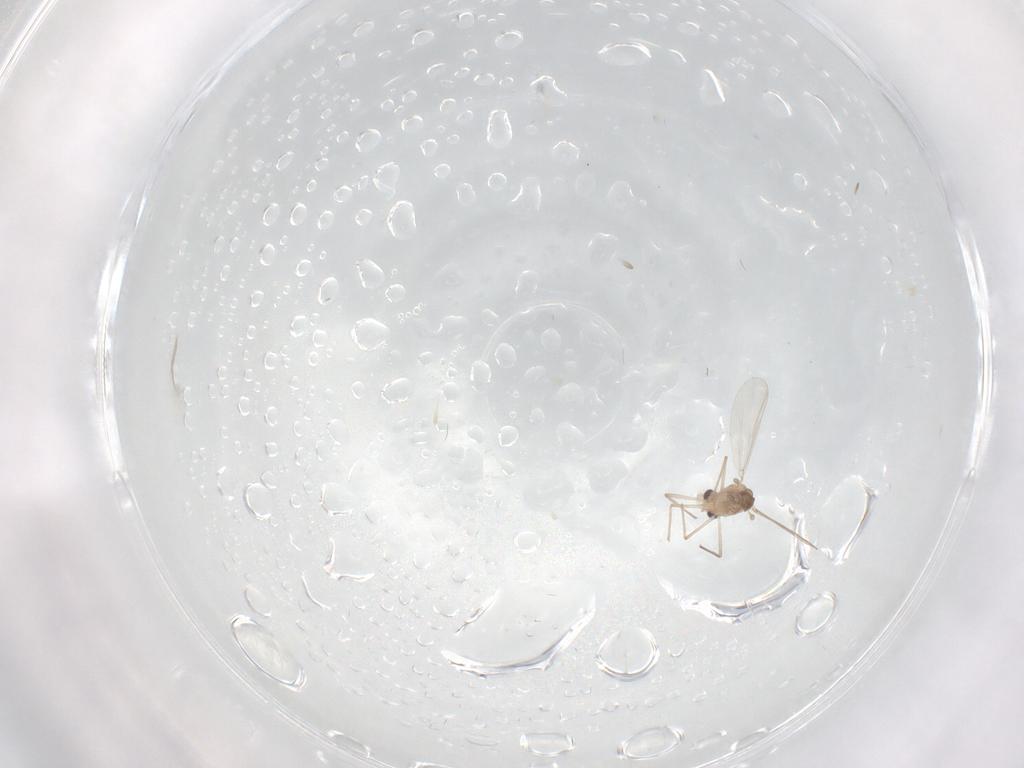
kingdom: Animalia
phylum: Arthropoda
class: Insecta
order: Diptera
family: Chironomidae
